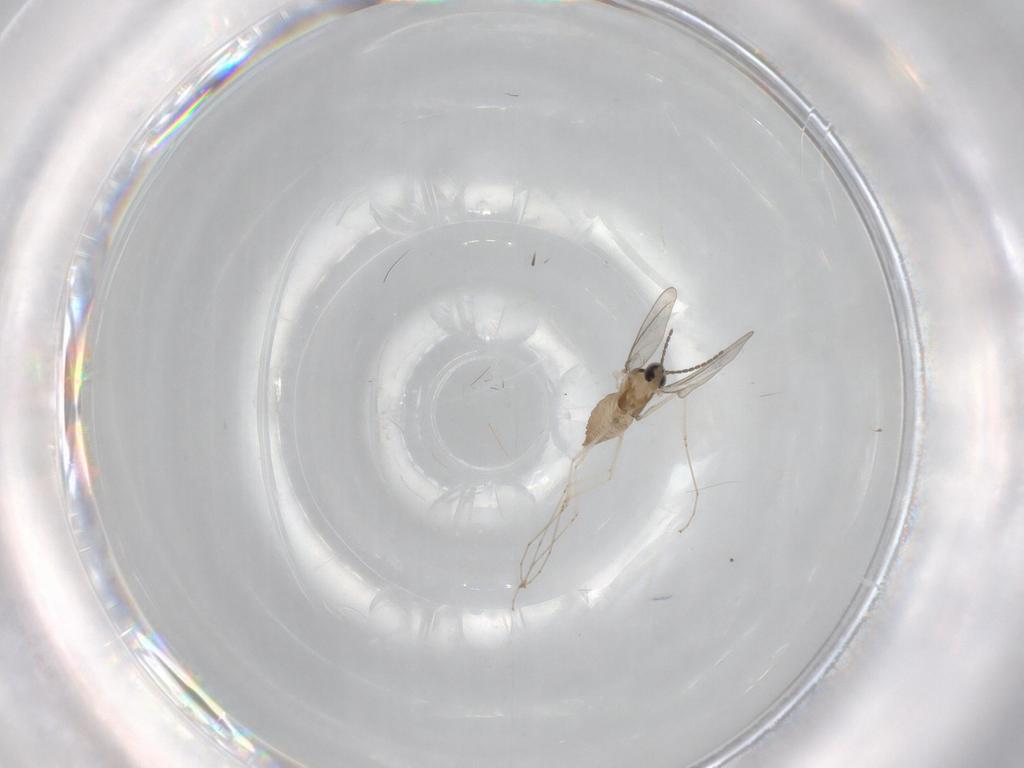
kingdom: Animalia
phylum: Arthropoda
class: Insecta
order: Diptera
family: Cecidomyiidae
